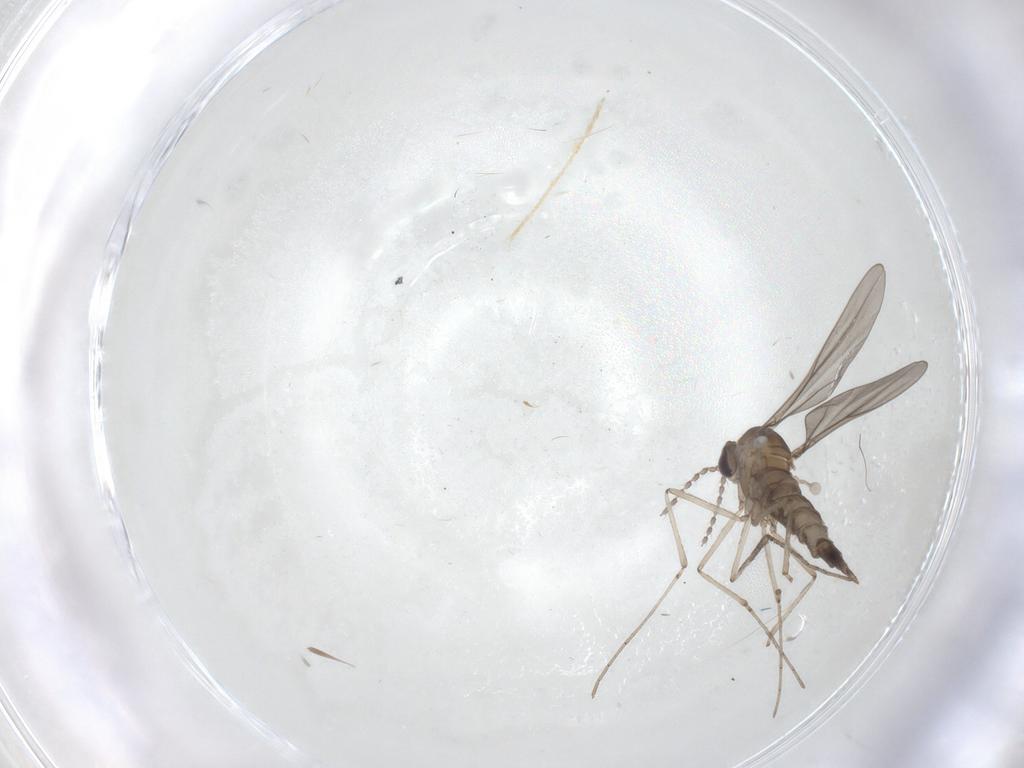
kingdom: Animalia
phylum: Arthropoda
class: Insecta
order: Diptera
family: Cecidomyiidae
